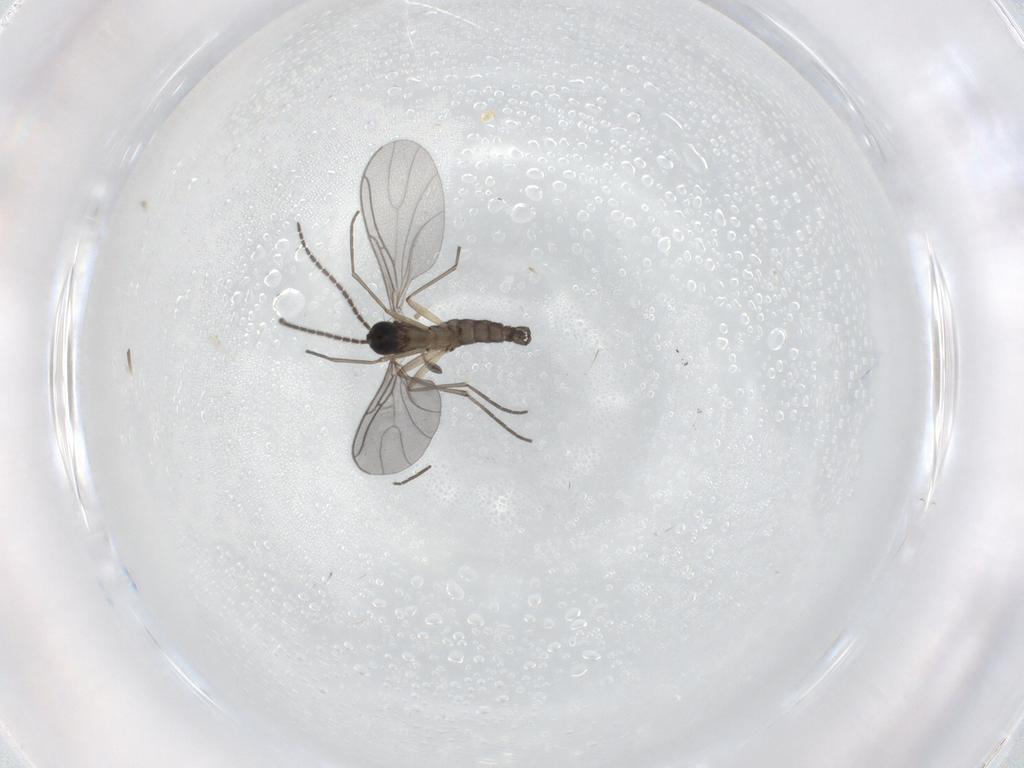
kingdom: Animalia
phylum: Arthropoda
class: Insecta
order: Diptera
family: Sciaridae
